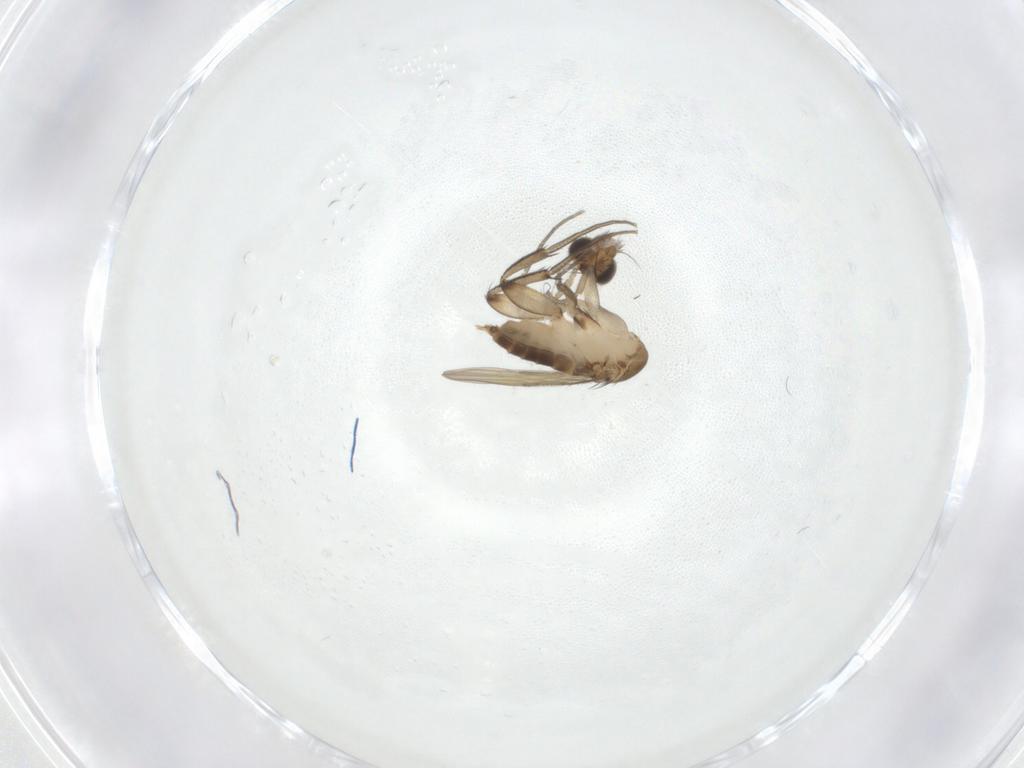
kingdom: Animalia
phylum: Arthropoda
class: Insecta
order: Diptera
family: Phoridae
